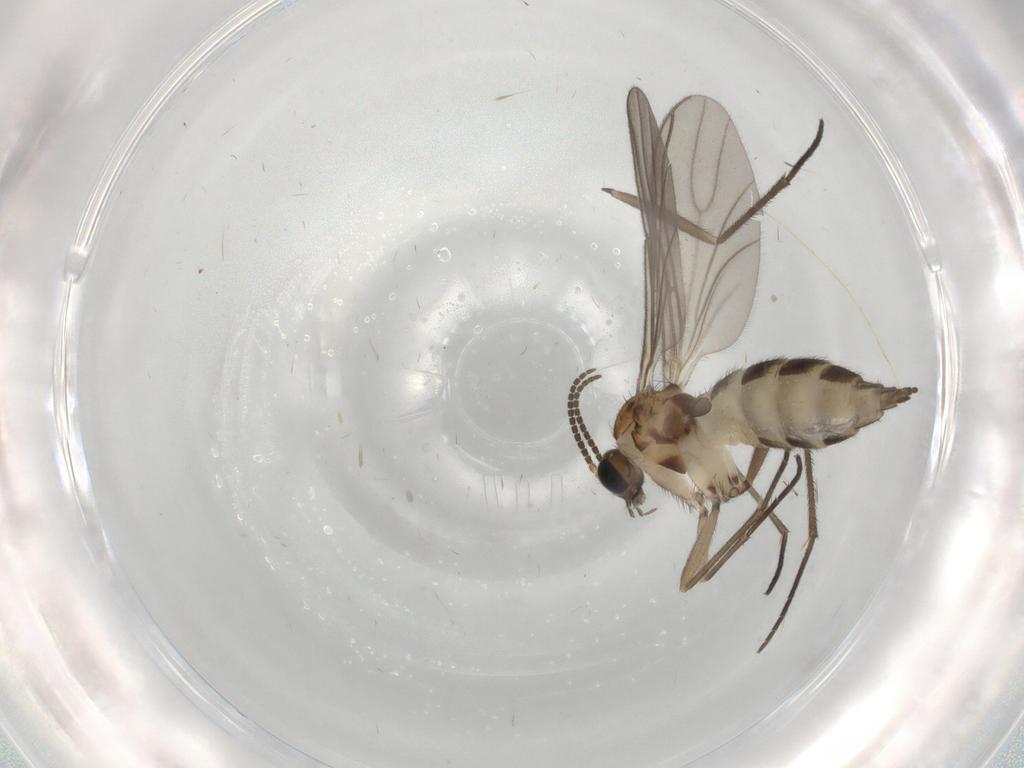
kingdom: Animalia
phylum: Arthropoda
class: Insecta
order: Diptera
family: Sciaridae
